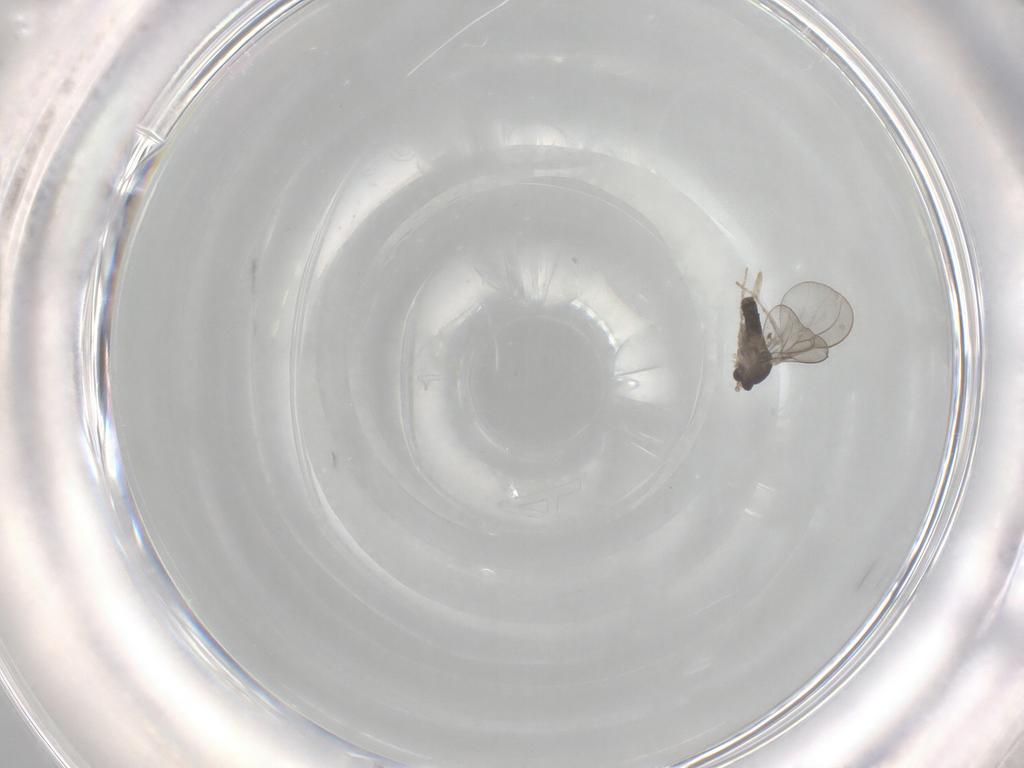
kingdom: Animalia
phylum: Arthropoda
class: Insecta
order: Diptera
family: Cecidomyiidae
